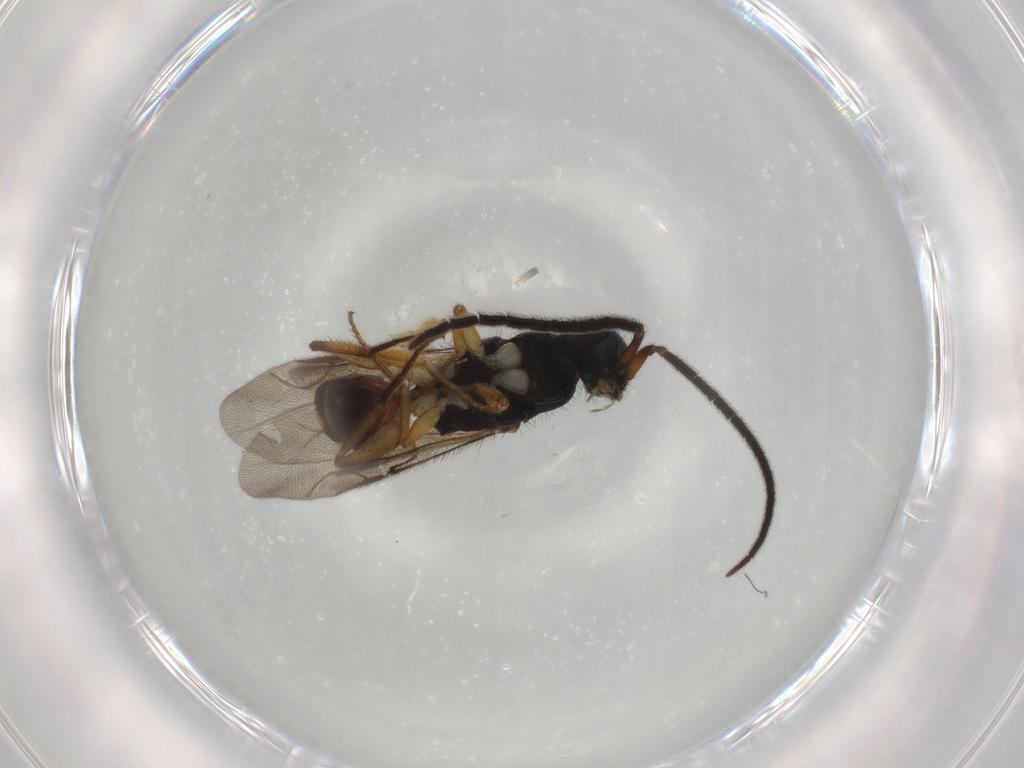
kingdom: Animalia
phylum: Arthropoda
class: Insecta
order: Hymenoptera
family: Chrysididae
